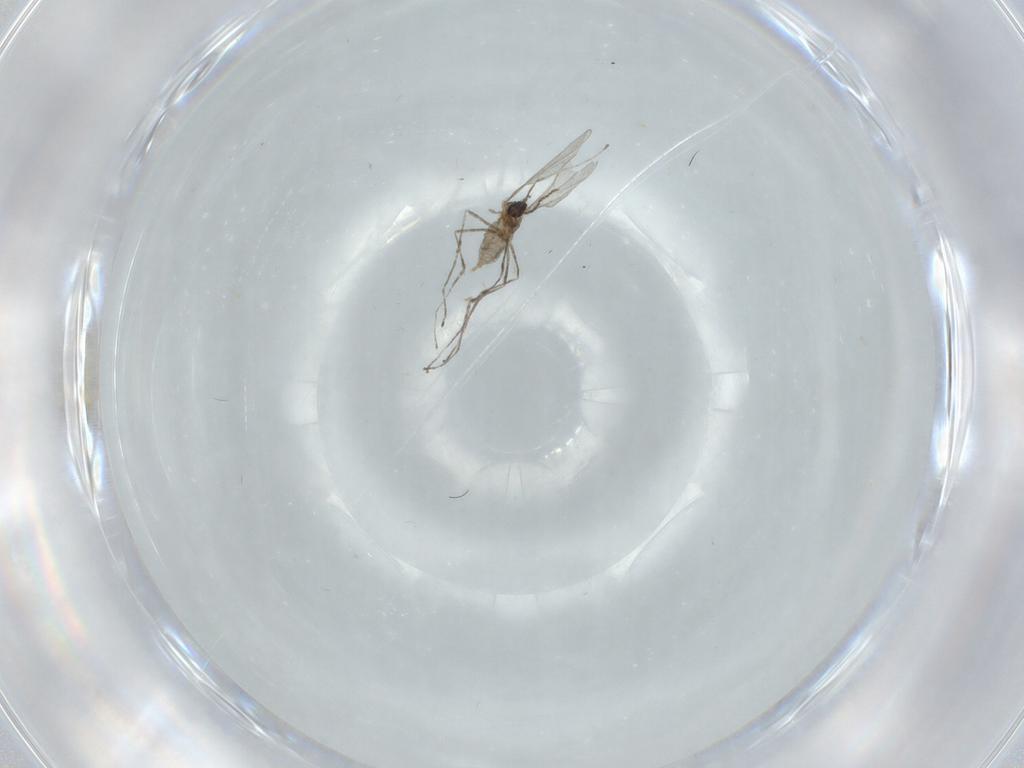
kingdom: Animalia
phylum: Arthropoda
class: Insecta
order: Diptera
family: Cecidomyiidae
